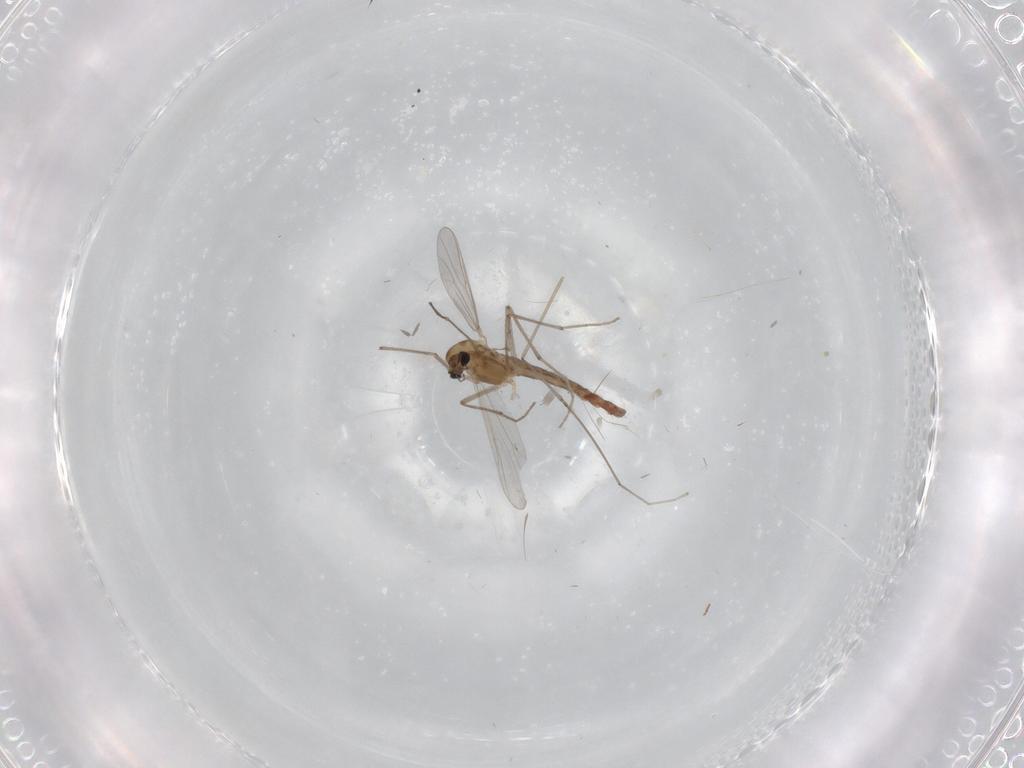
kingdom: Animalia
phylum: Arthropoda
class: Insecta
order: Diptera
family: Chironomidae
